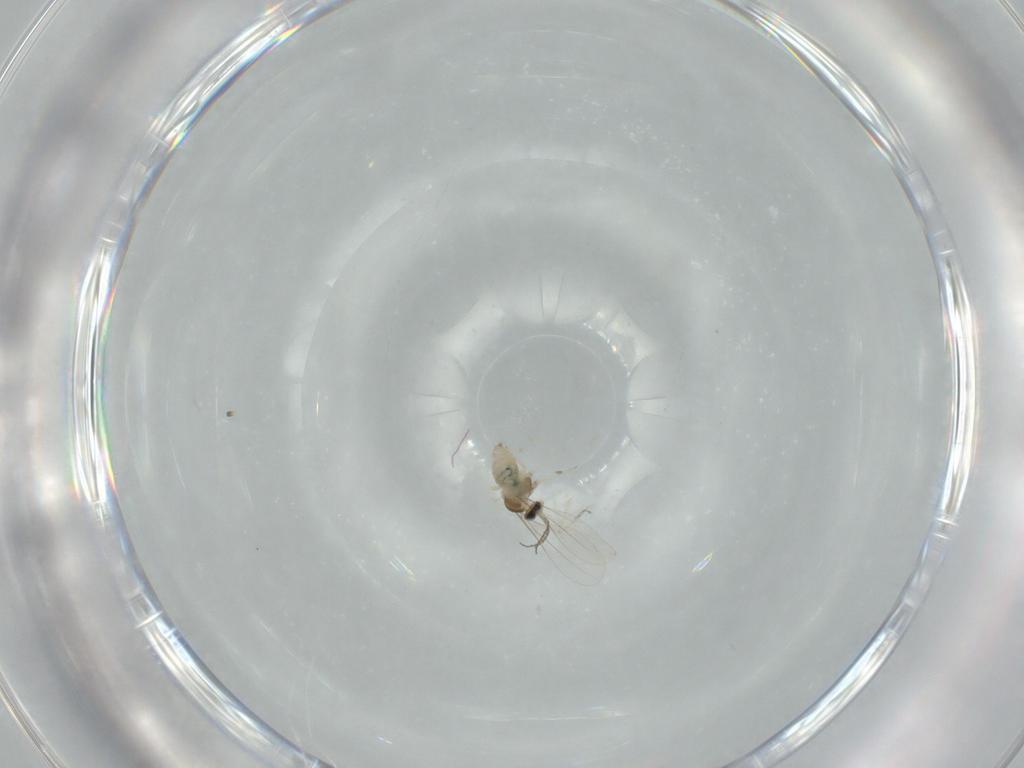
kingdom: Animalia
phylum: Arthropoda
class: Insecta
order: Diptera
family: Cecidomyiidae
